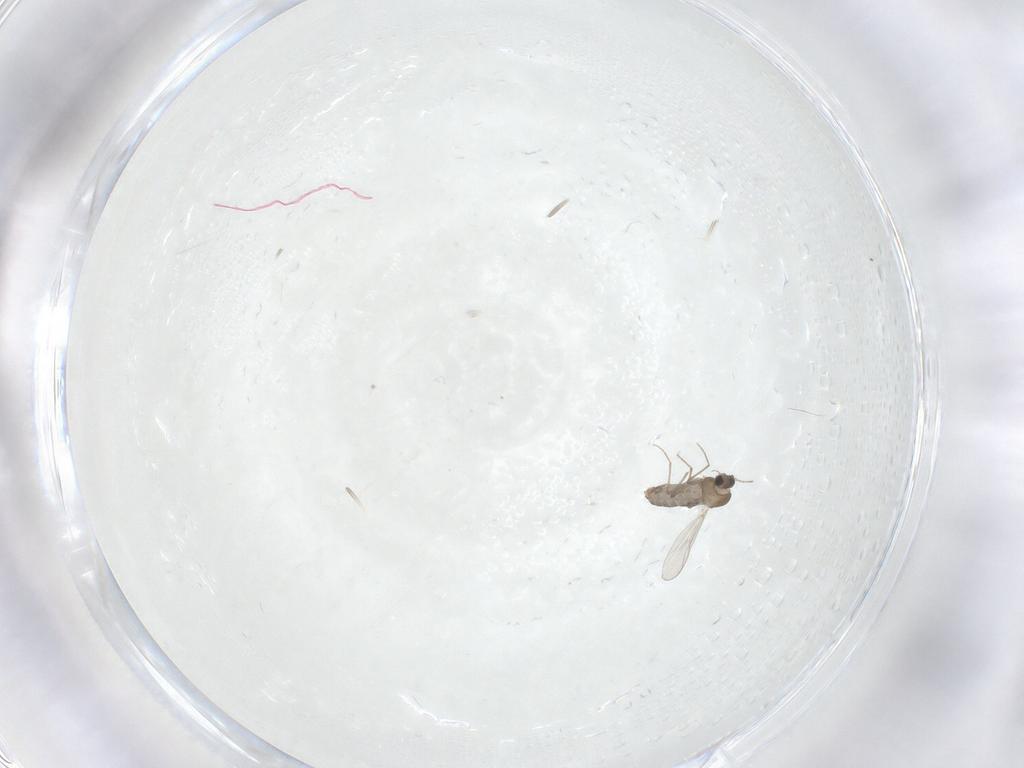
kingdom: Animalia
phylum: Arthropoda
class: Insecta
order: Diptera
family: Chironomidae
